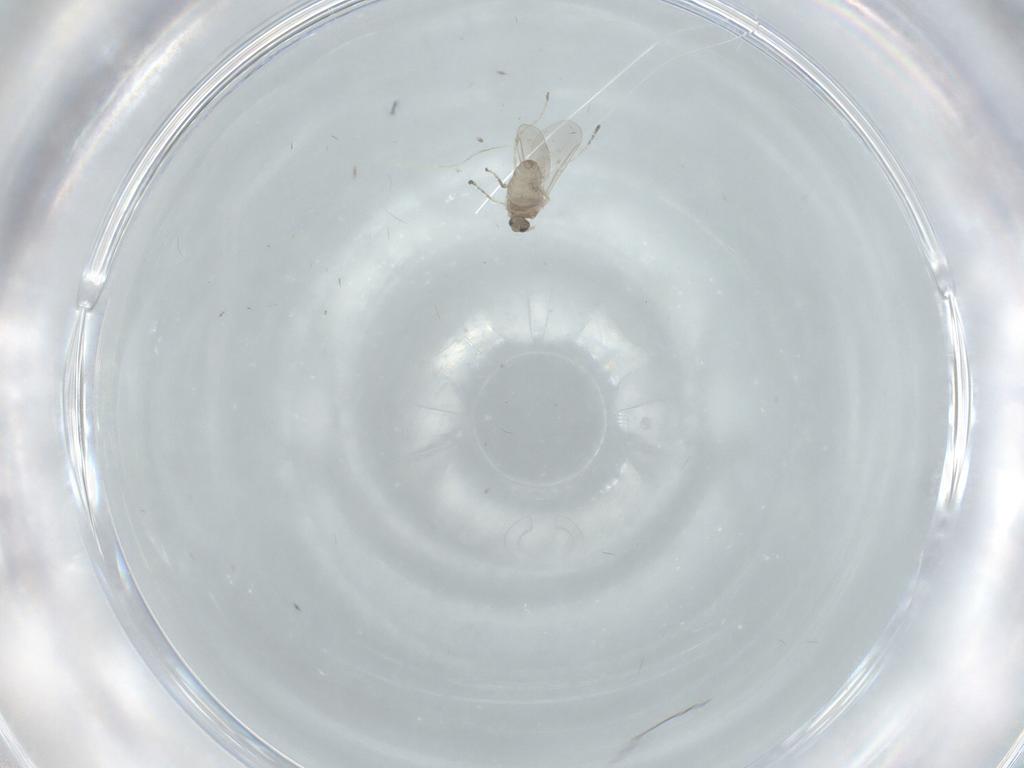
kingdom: Animalia
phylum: Arthropoda
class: Insecta
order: Diptera
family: Cecidomyiidae
